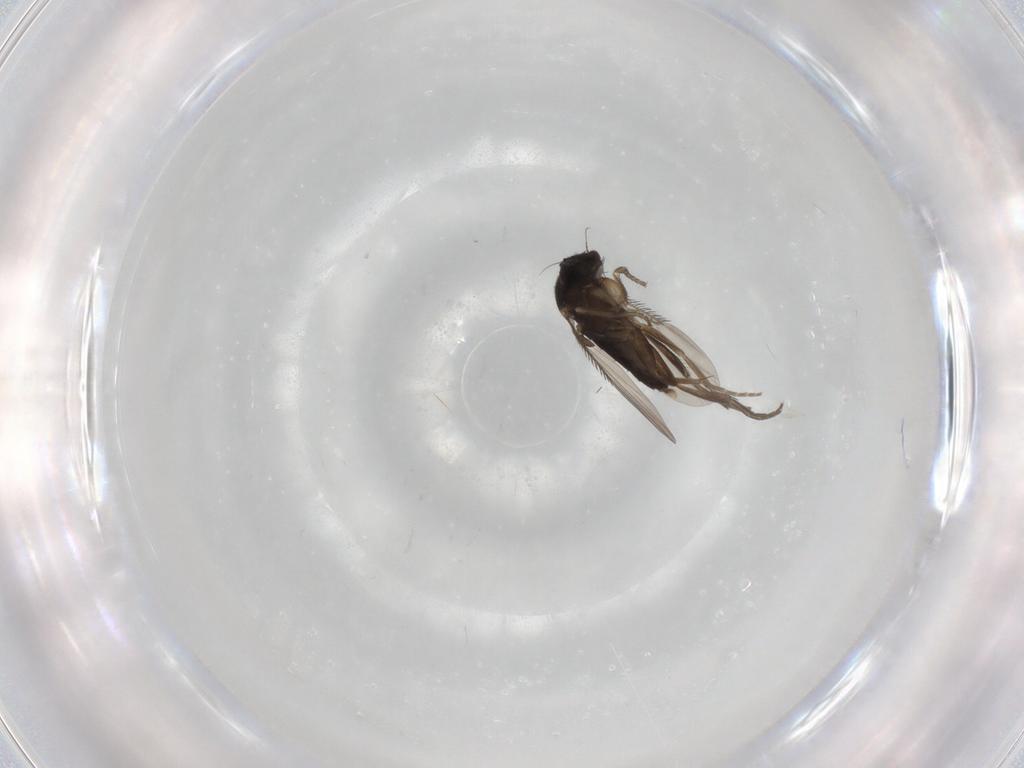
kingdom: Animalia
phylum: Arthropoda
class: Insecta
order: Diptera
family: Phoridae
